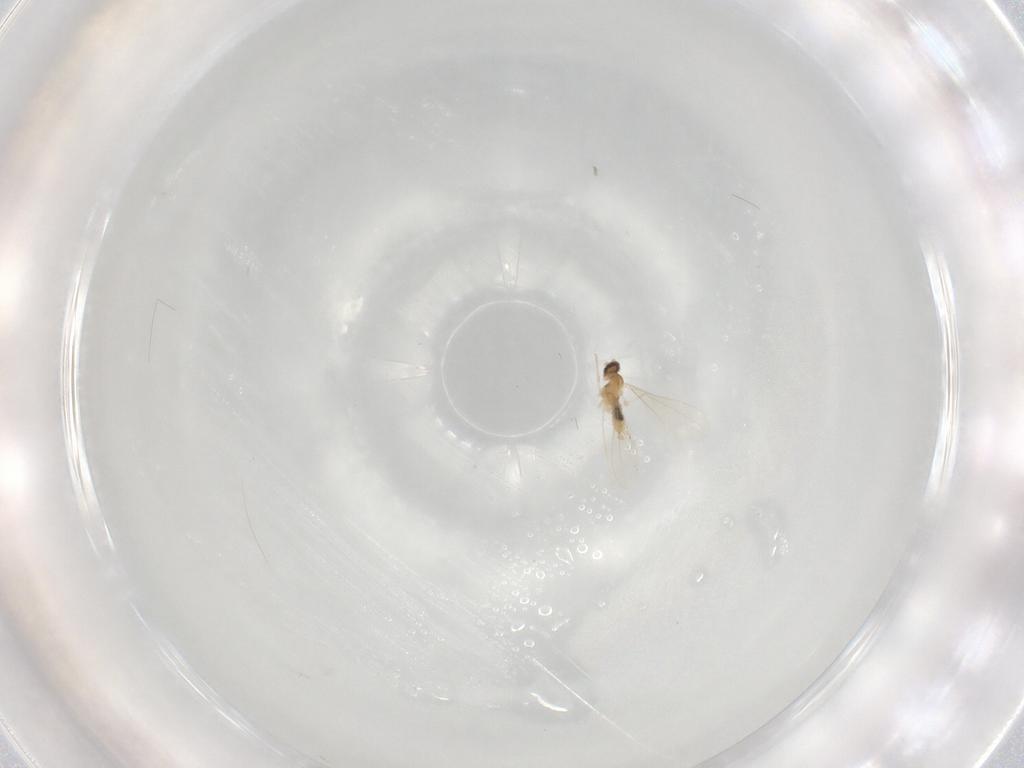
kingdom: Animalia
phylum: Arthropoda
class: Insecta
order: Diptera
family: Cecidomyiidae
